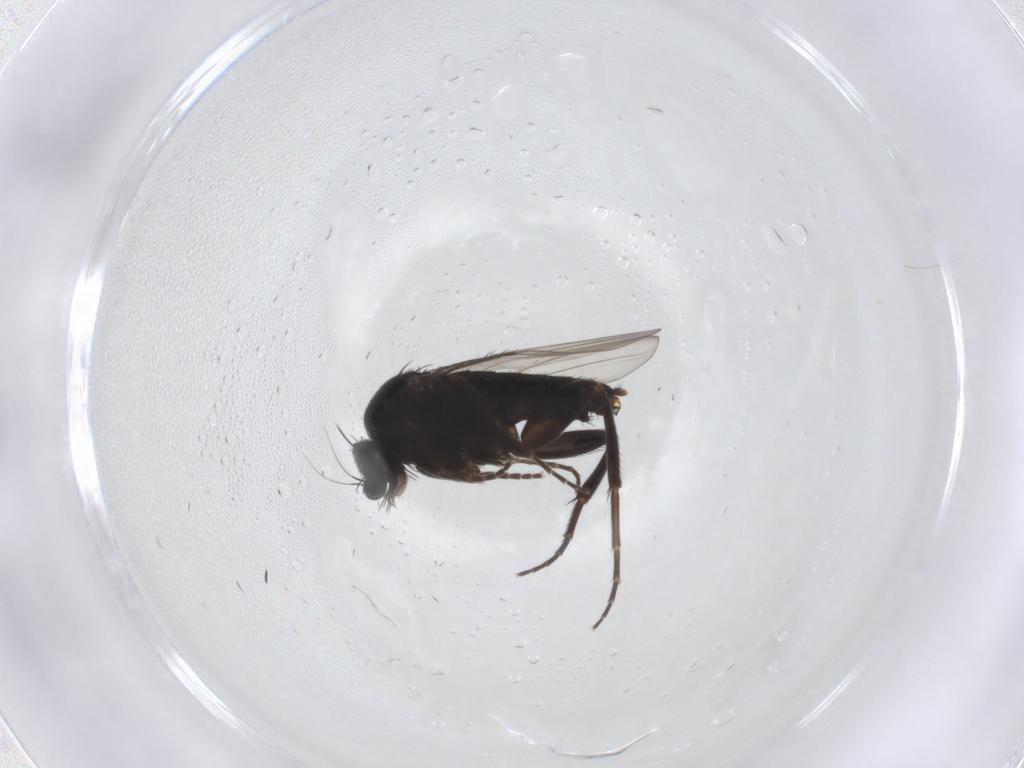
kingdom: Animalia
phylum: Arthropoda
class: Insecta
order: Diptera
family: Phoridae
